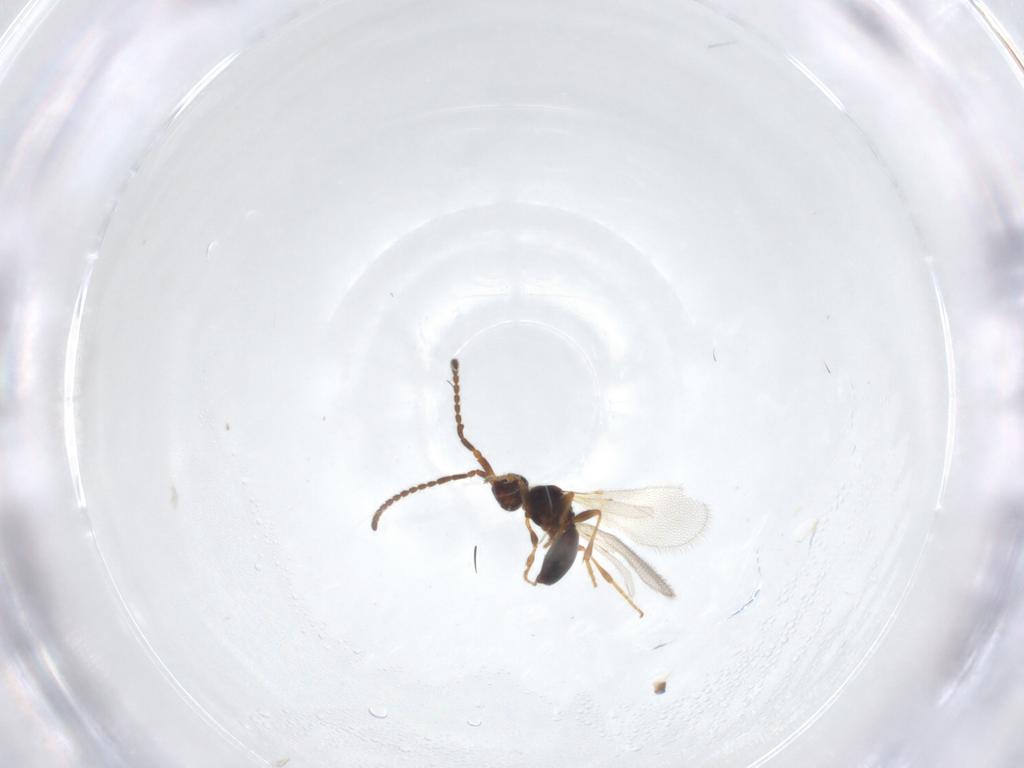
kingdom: Animalia
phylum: Arthropoda
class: Insecta
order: Hymenoptera
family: Diapriidae
